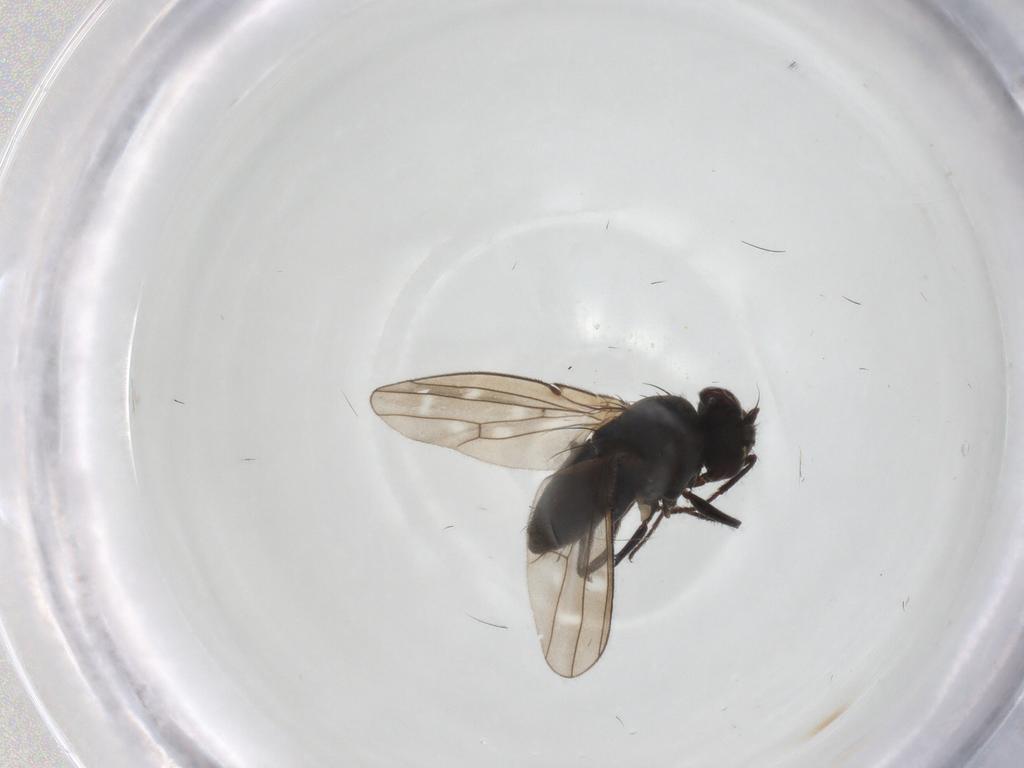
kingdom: Animalia
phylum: Arthropoda
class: Insecta
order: Diptera
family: Ephydridae
